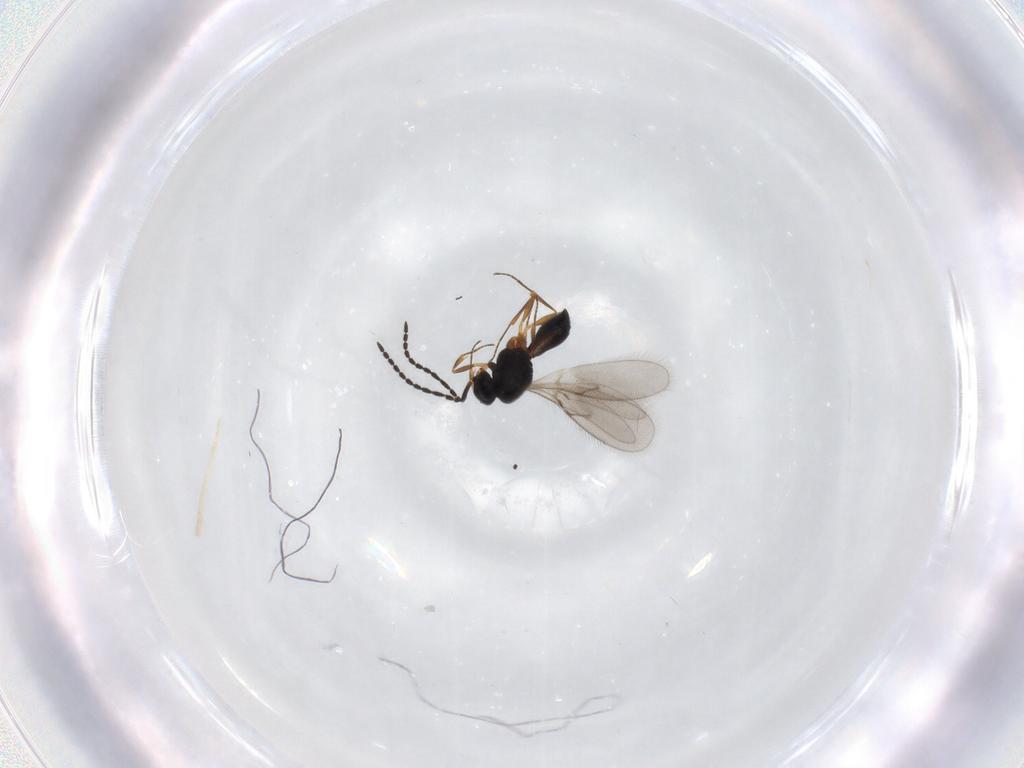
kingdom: Animalia
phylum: Arthropoda
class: Insecta
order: Hymenoptera
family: Scelionidae
